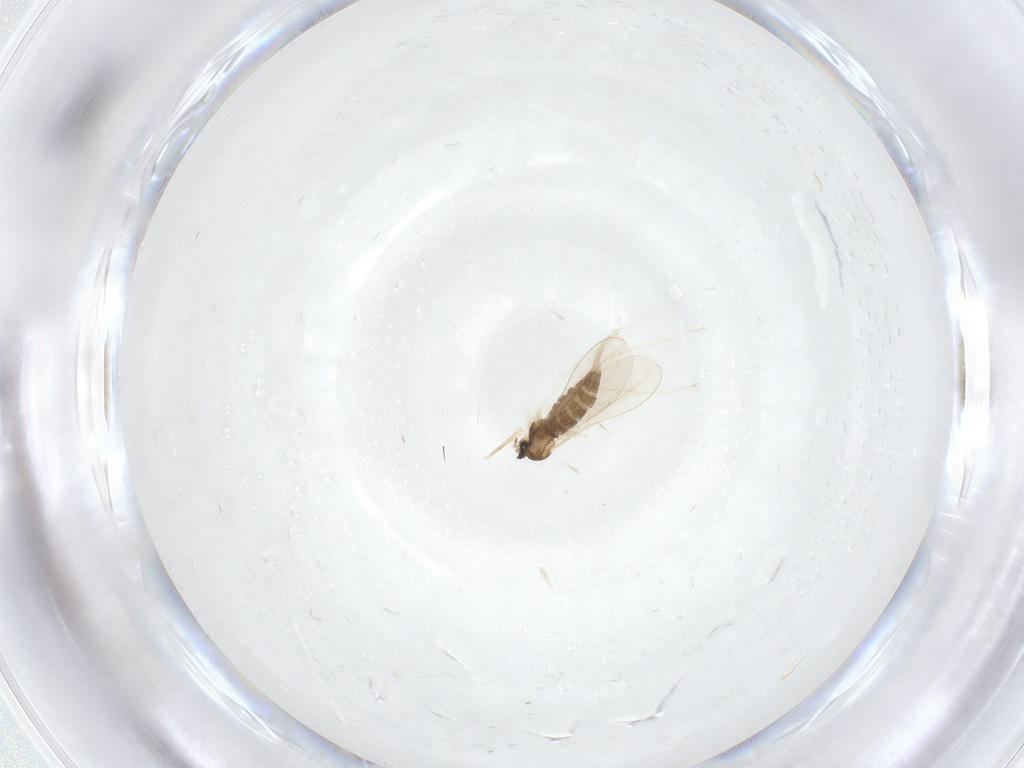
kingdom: Animalia
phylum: Arthropoda
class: Insecta
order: Diptera
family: Cecidomyiidae
